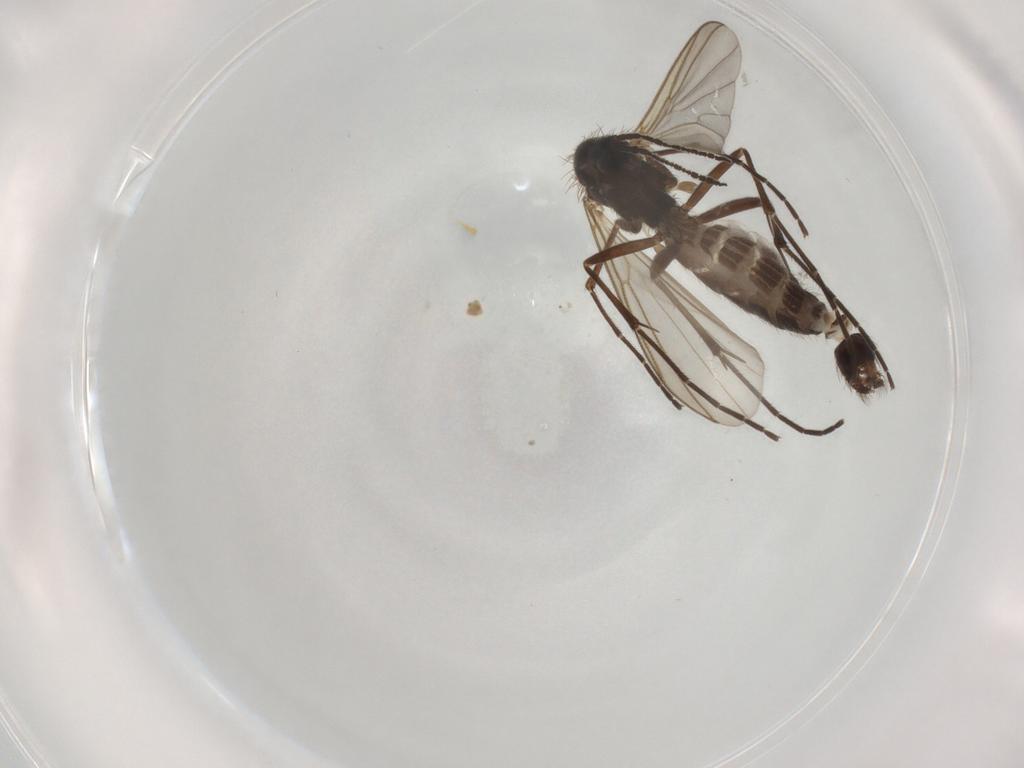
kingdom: Animalia
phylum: Arthropoda
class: Insecta
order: Diptera
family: Mycetophilidae
